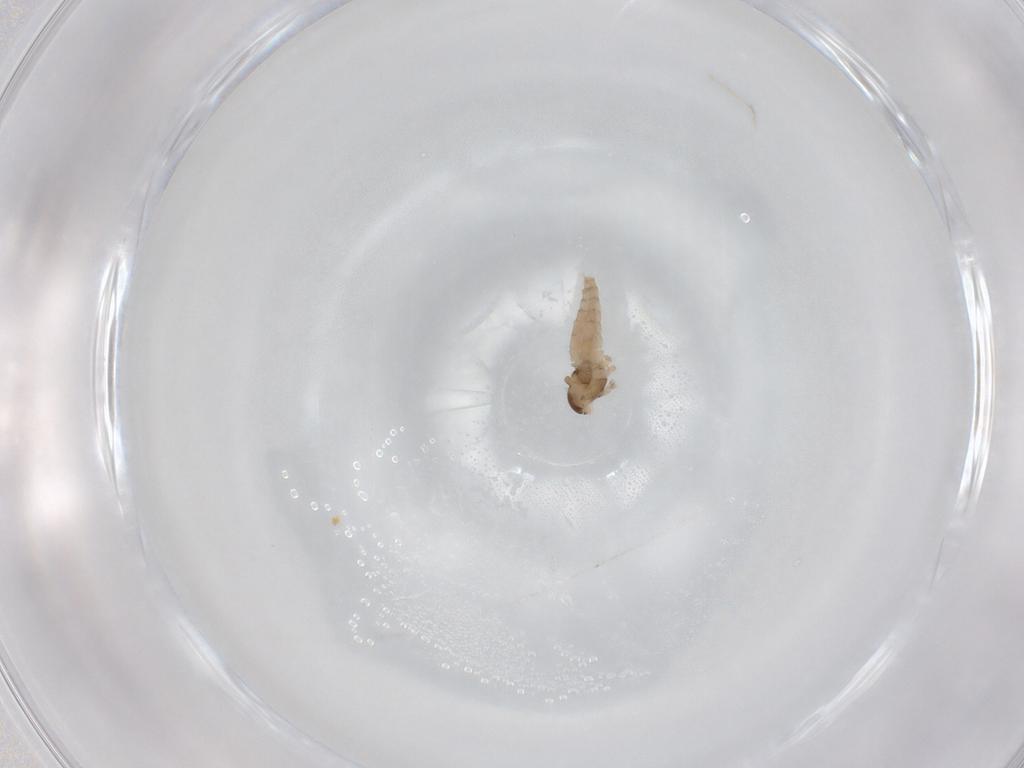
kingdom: Animalia
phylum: Arthropoda
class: Insecta
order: Diptera
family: Cecidomyiidae
